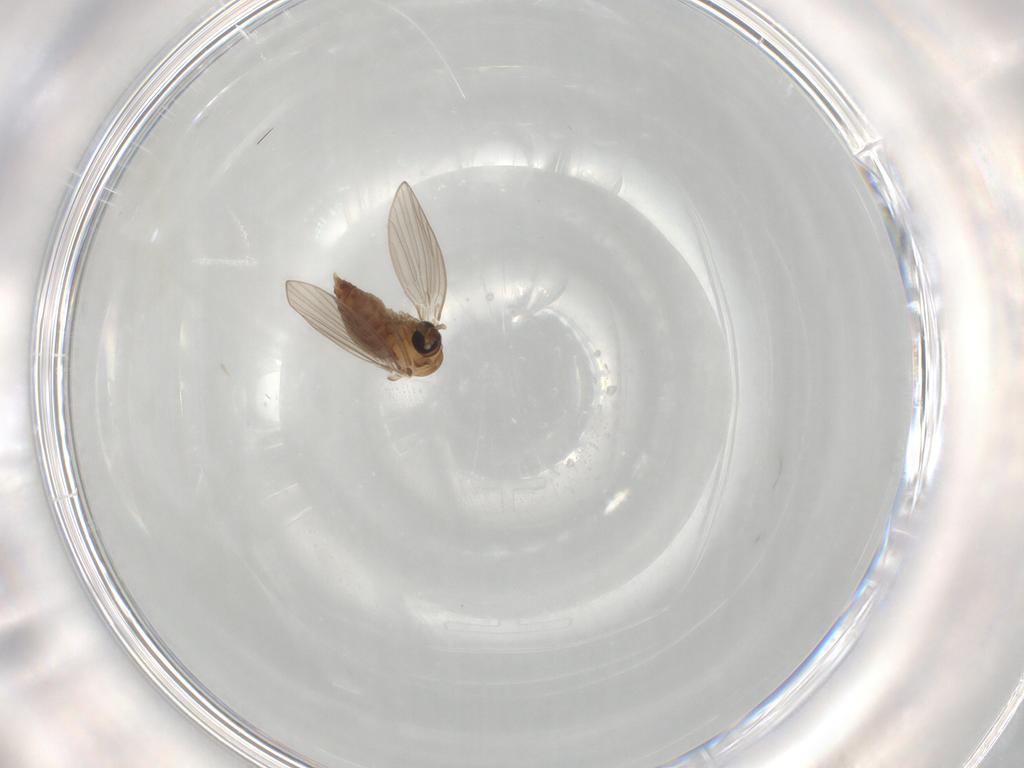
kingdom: Animalia
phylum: Arthropoda
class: Insecta
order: Diptera
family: Psychodidae
